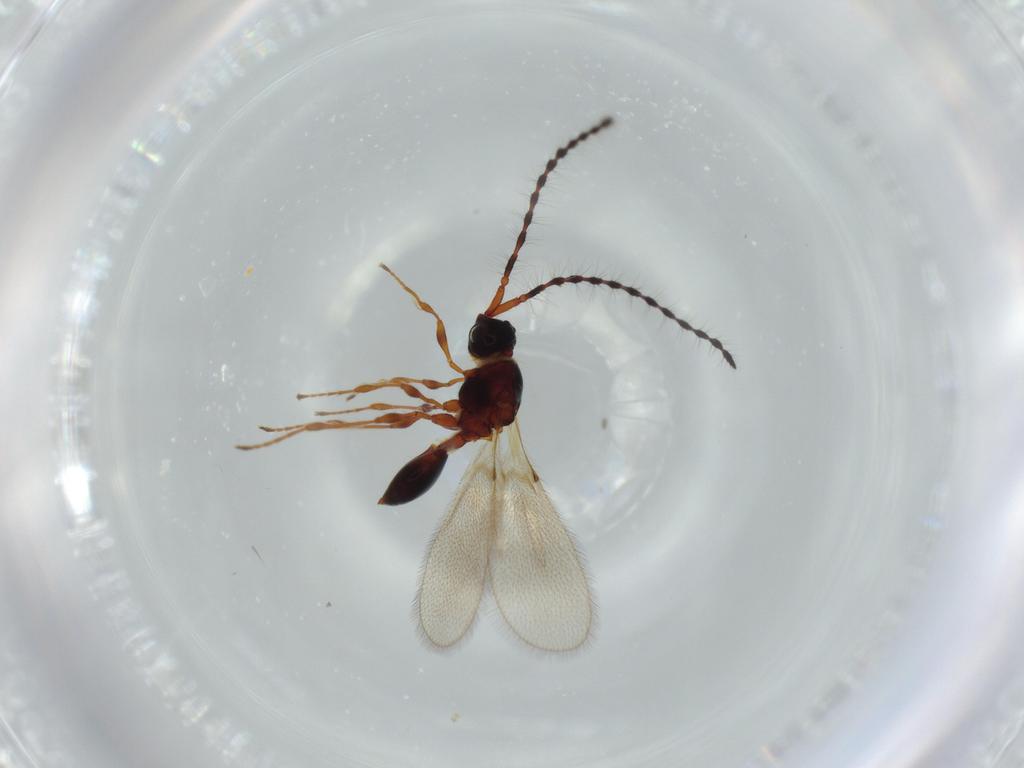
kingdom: Animalia
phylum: Arthropoda
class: Insecta
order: Hymenoptera
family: Diapriidae
